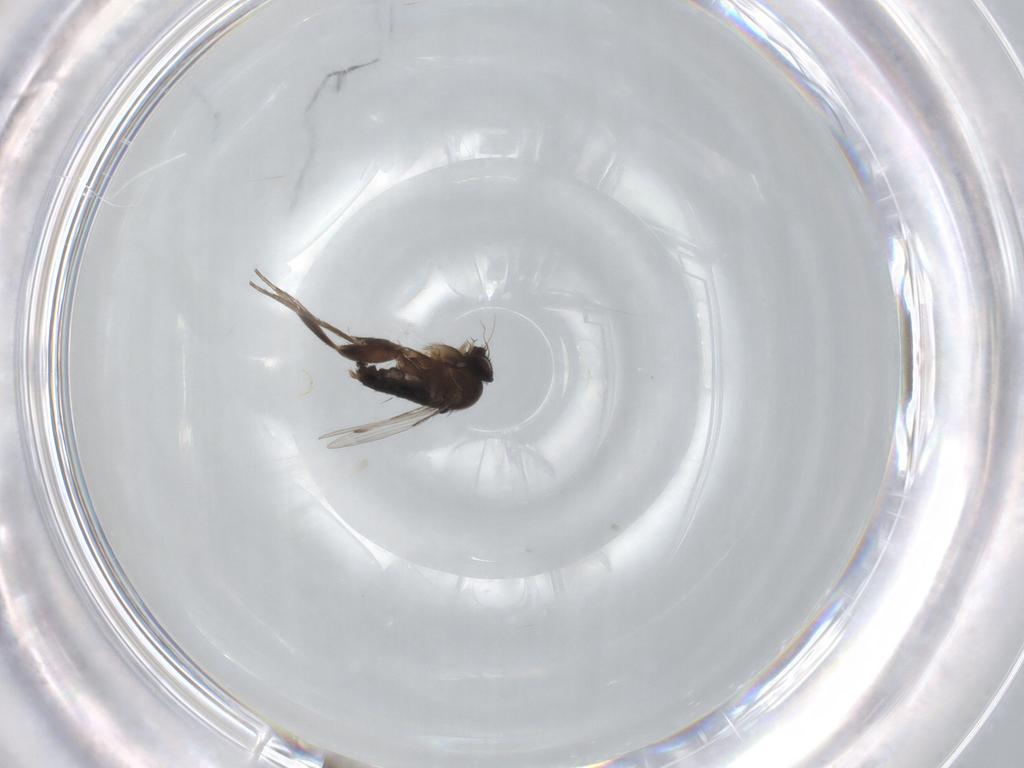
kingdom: Animalia
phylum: Arthropoda
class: Insecta
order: Diptera
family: Phoridae
